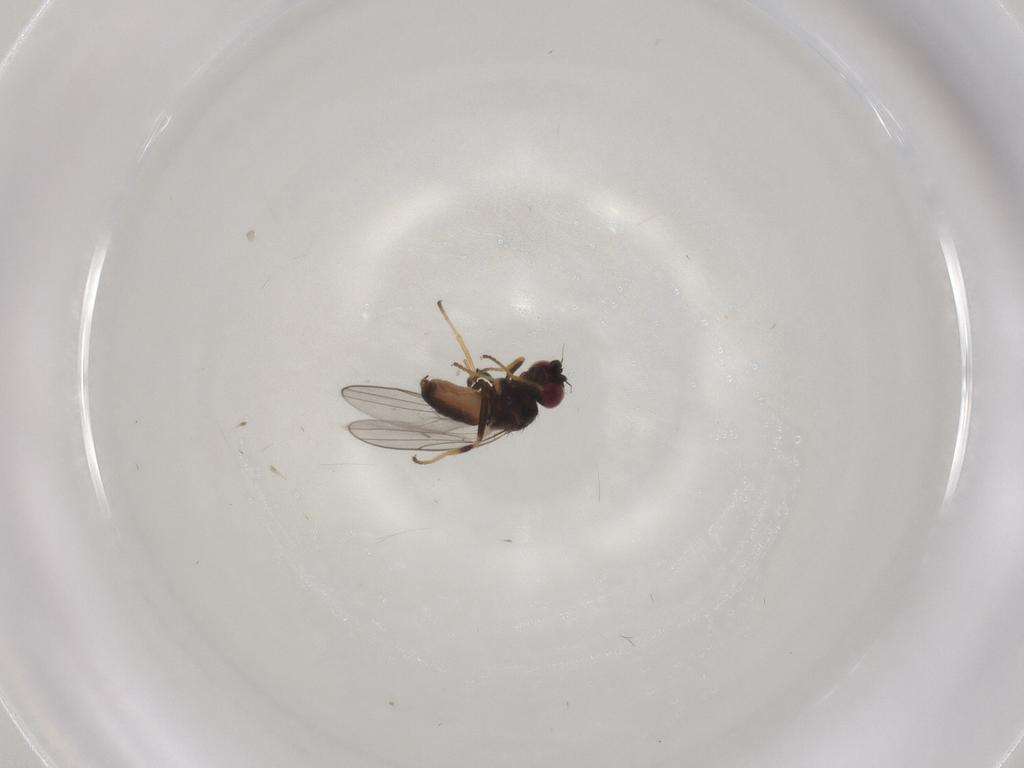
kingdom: Animalia
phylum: Arthropoda
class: Insecta
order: Diptera
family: Chloropidae
